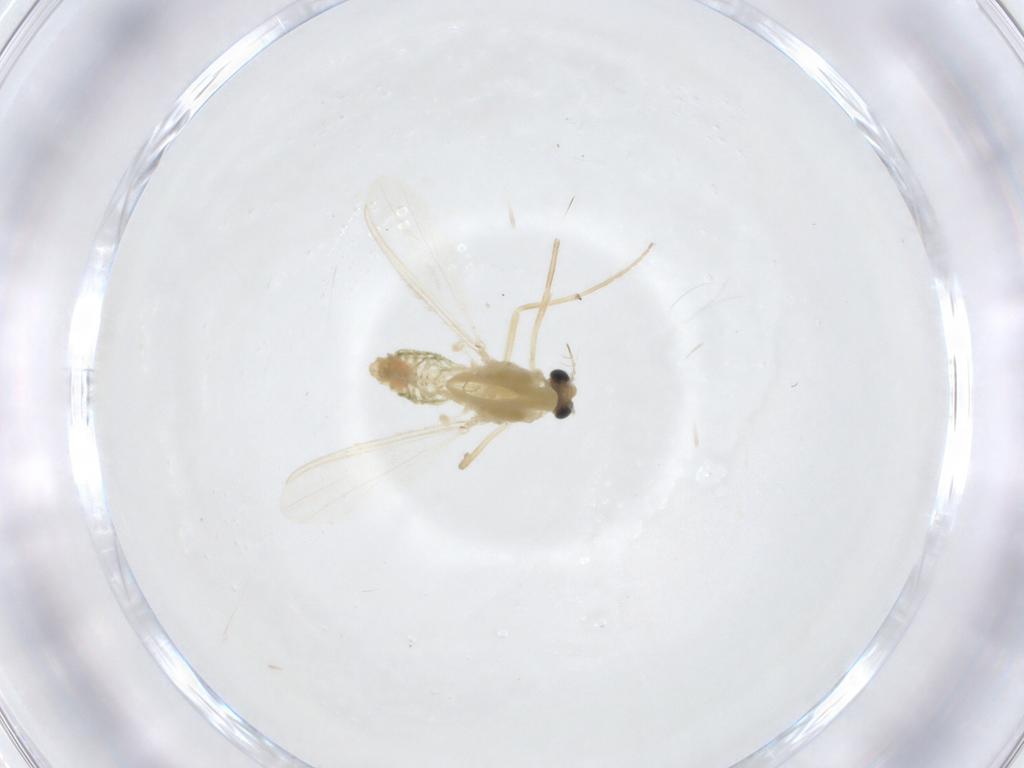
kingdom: Animalia
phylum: Arthropoda
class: Insecta
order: Diptera
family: Chironomidae
